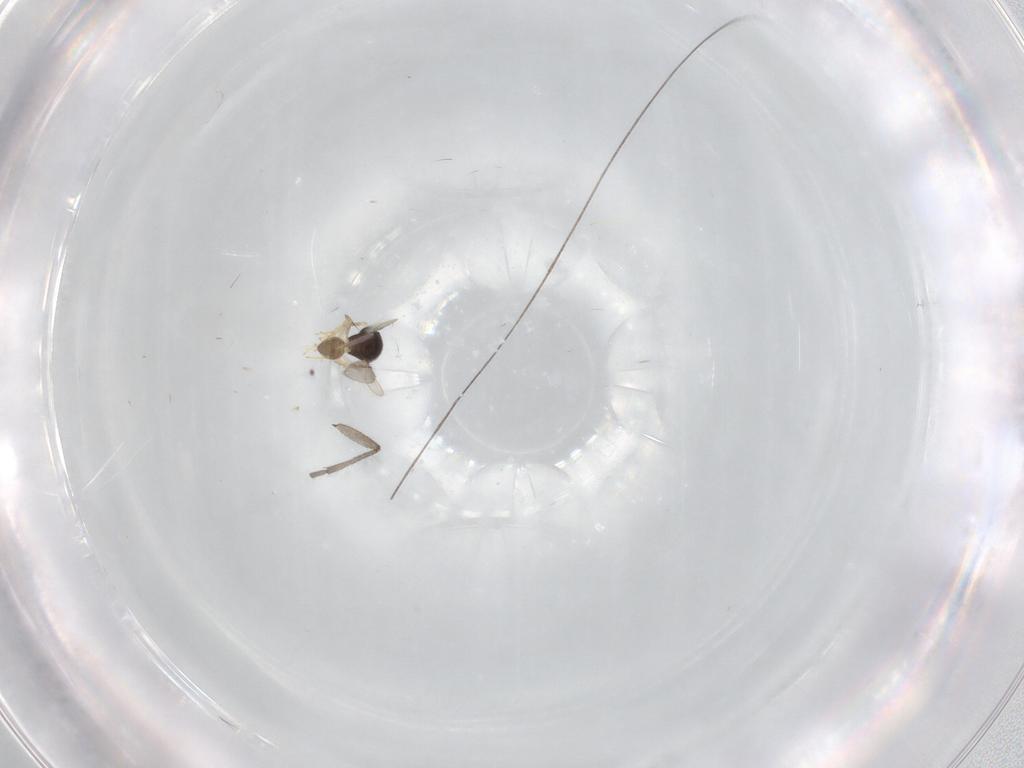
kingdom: Animalia
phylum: Arthropoda
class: Insecta
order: Hymenoptera
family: Scelionidae
